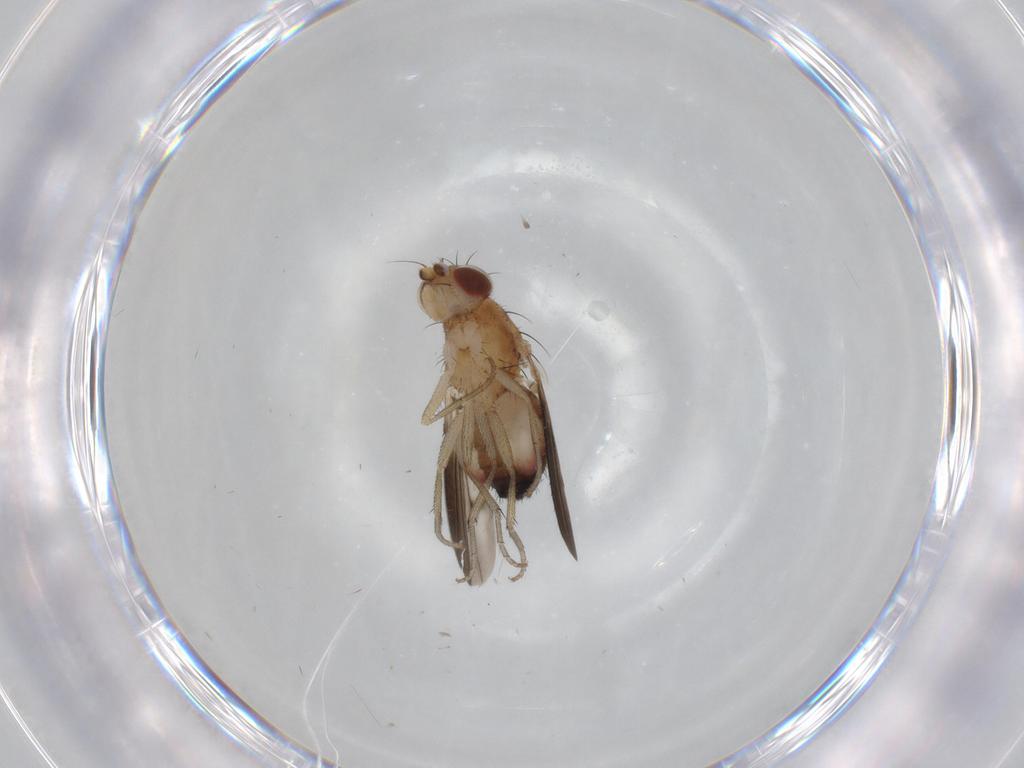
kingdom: Animalia
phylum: Arthropoda
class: Insecta
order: Diptera
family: Heleomyzidae
